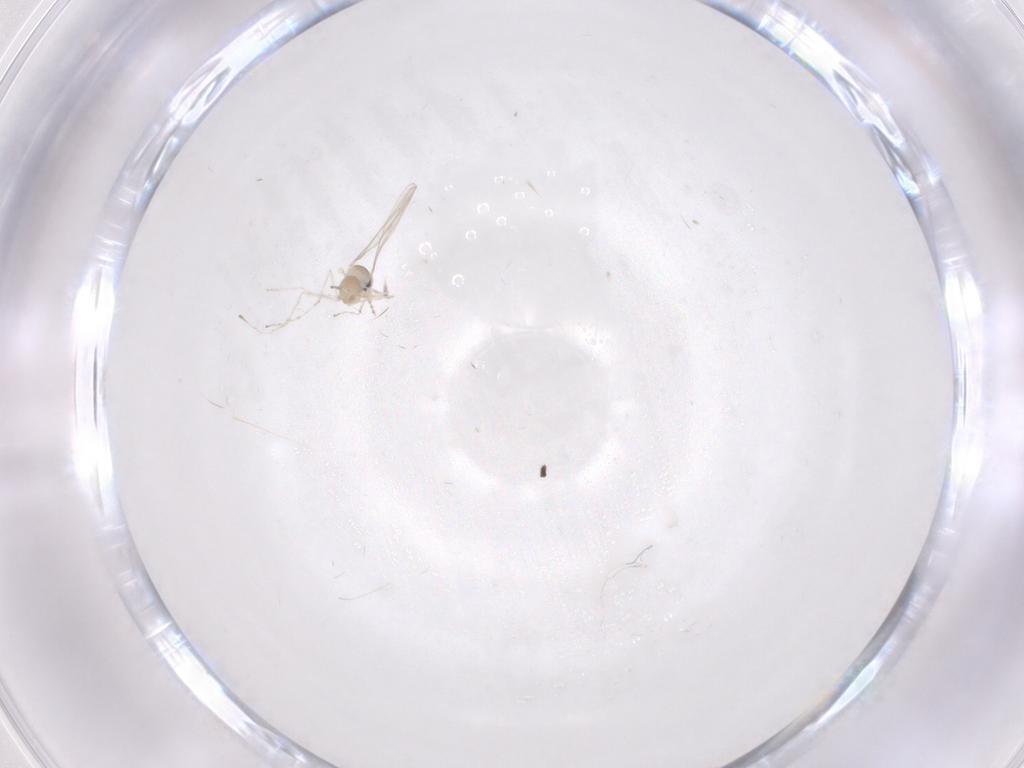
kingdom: Animalia
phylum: Arthropoda
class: Insecta
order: Diptera
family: Cecidomyiidae
